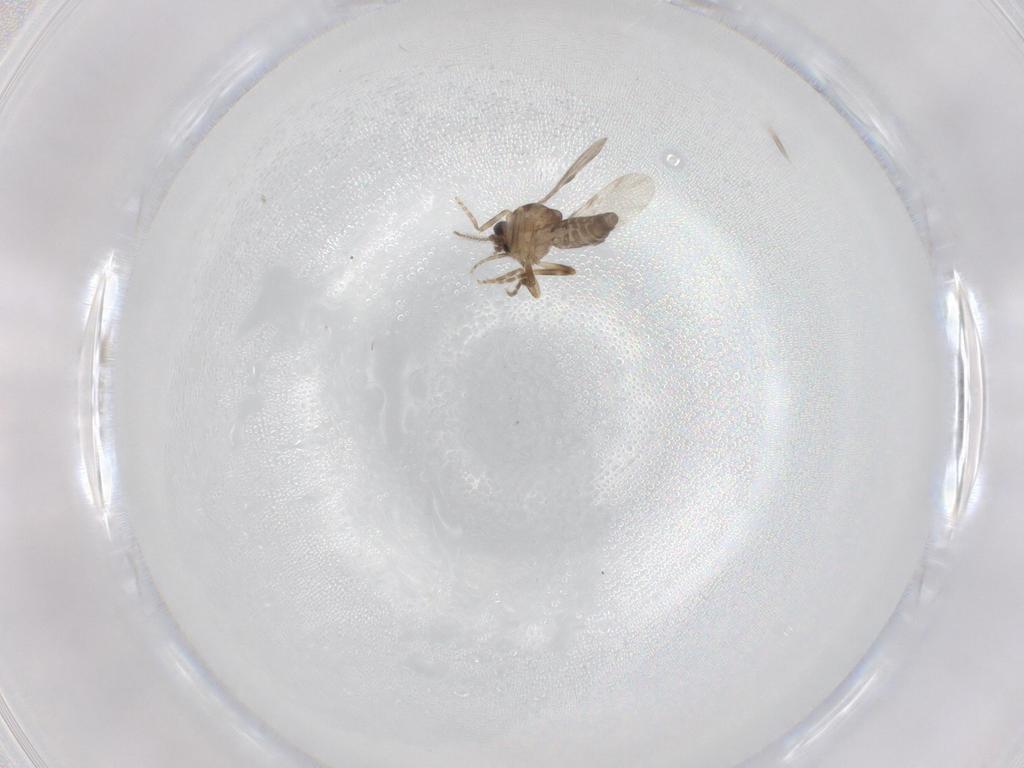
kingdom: Animalia
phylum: Arthropoda
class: Insecta
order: Diptera
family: Ceratopogonidae
